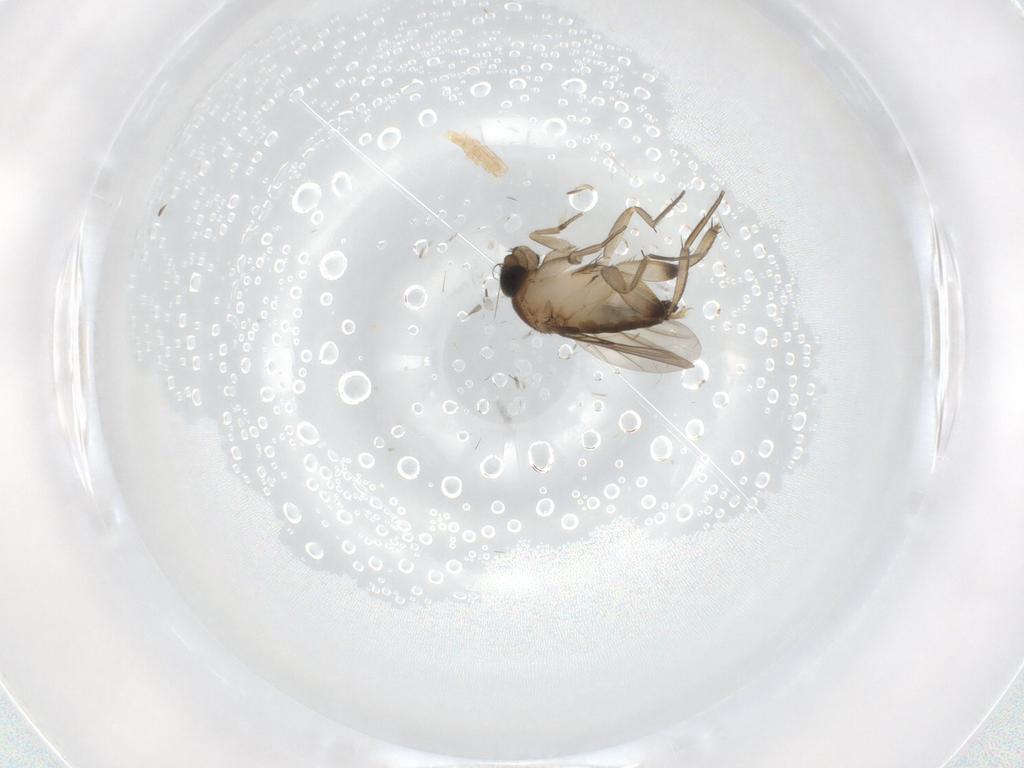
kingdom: Animalia
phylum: Arthropoda
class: Insecta
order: Diptera
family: Phoridae
